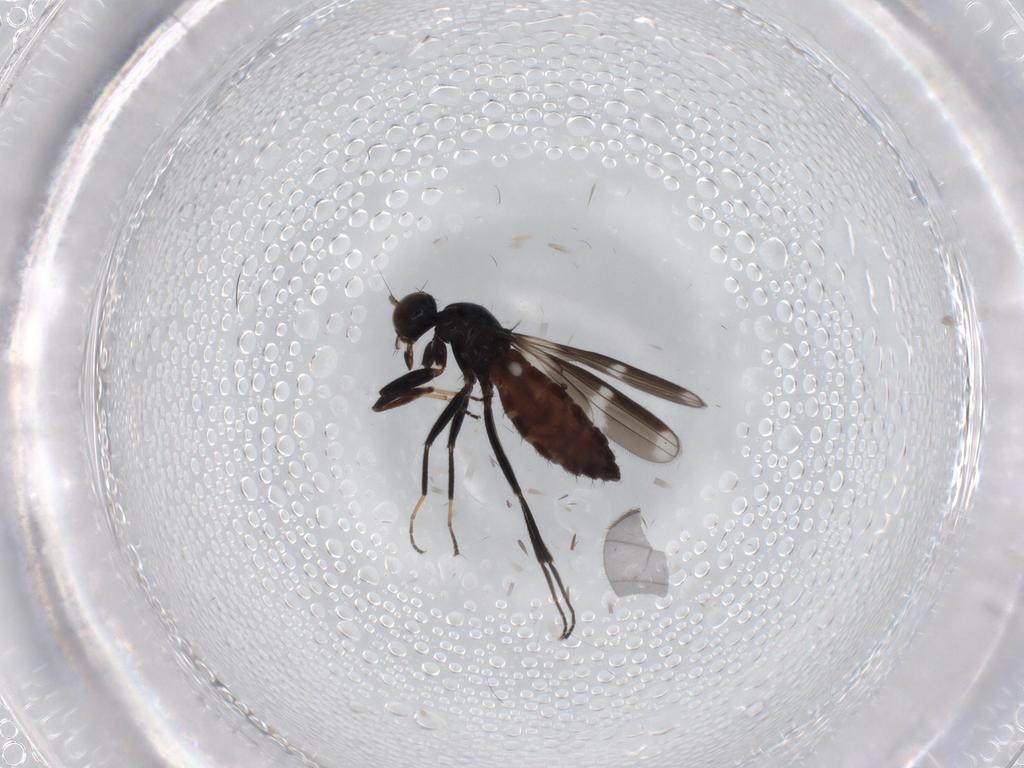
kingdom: Animalia
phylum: Arthropoda
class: Insecta
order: Diptera
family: Hybotidae
